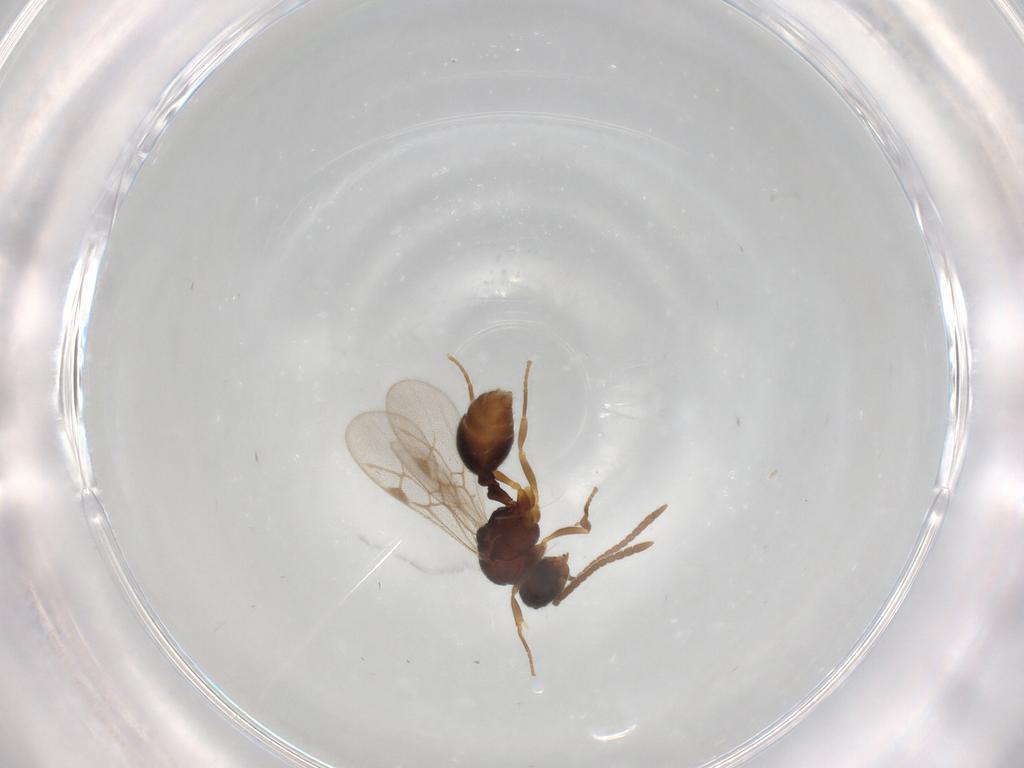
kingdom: Animalia
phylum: Arthropoda
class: Insecta
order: Hymenoptera
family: Formicidae
